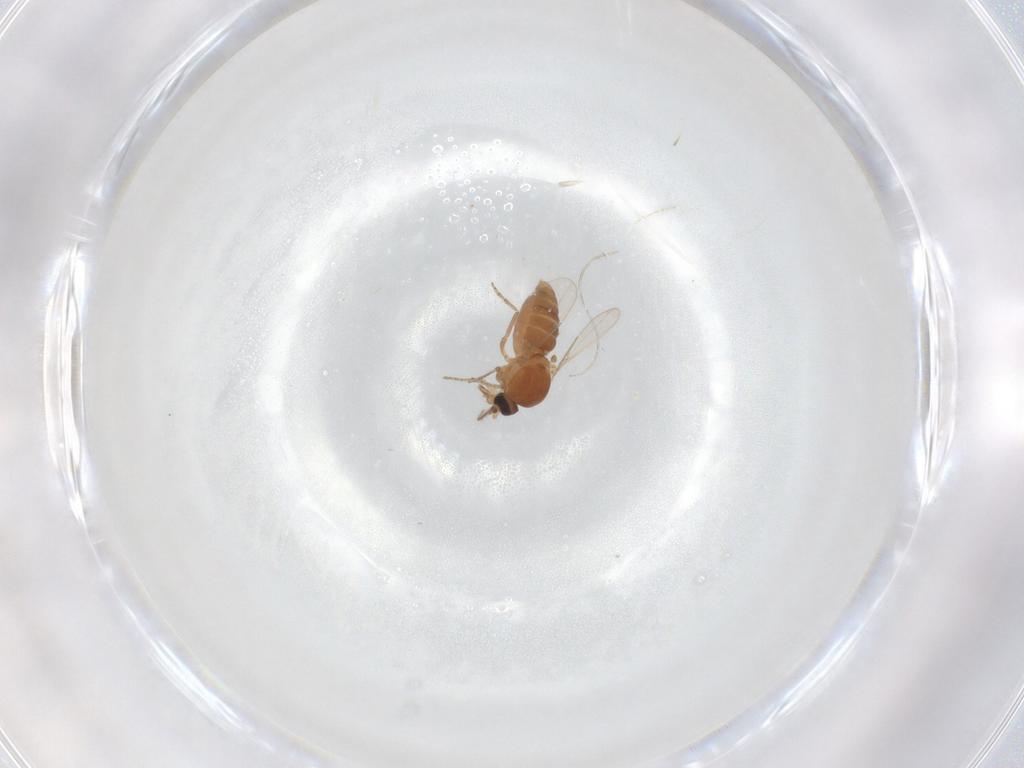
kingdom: Animalia
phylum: Arthropoda
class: Insecta
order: Diptera
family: Ceratopogonidae
